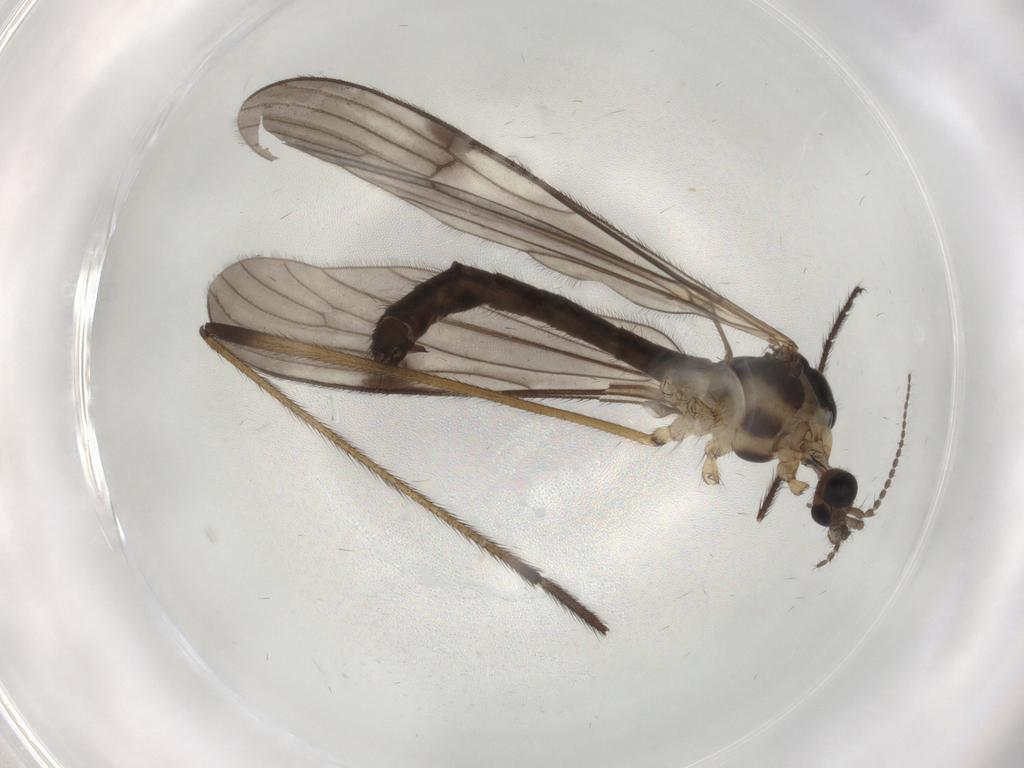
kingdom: Animalia
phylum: Arthropoda
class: Insecta
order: Diptera
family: Limoniidae
